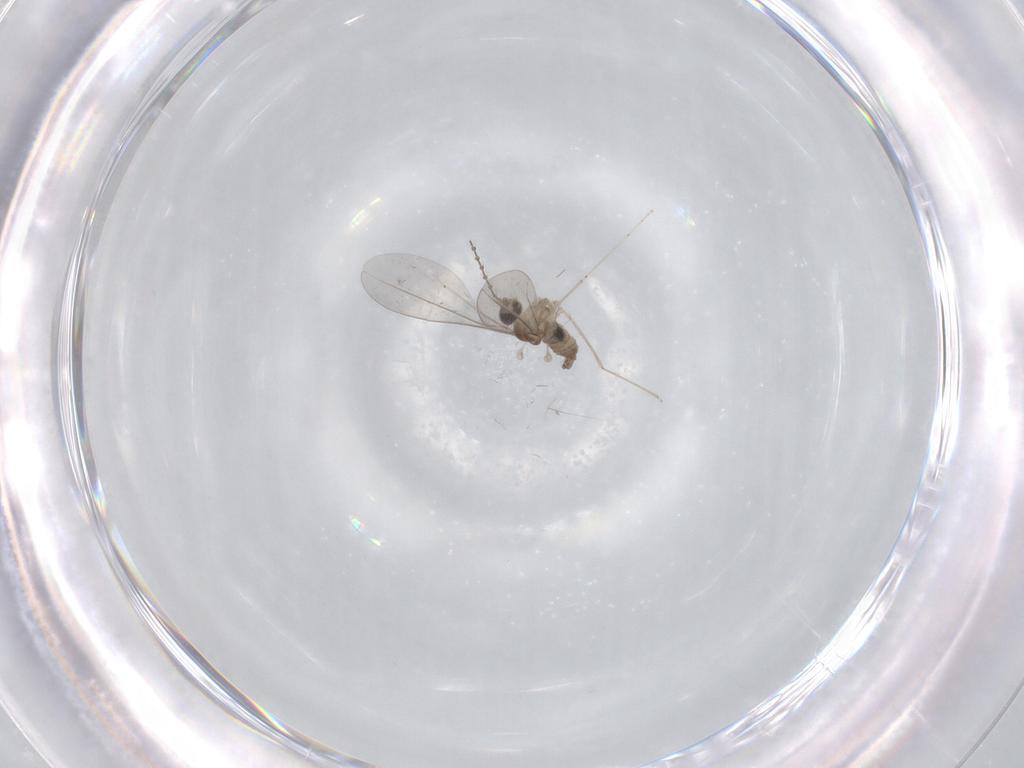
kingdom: Animalia
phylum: Arthropoda
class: Insecta
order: Diptera
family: Cecidomyiidae
